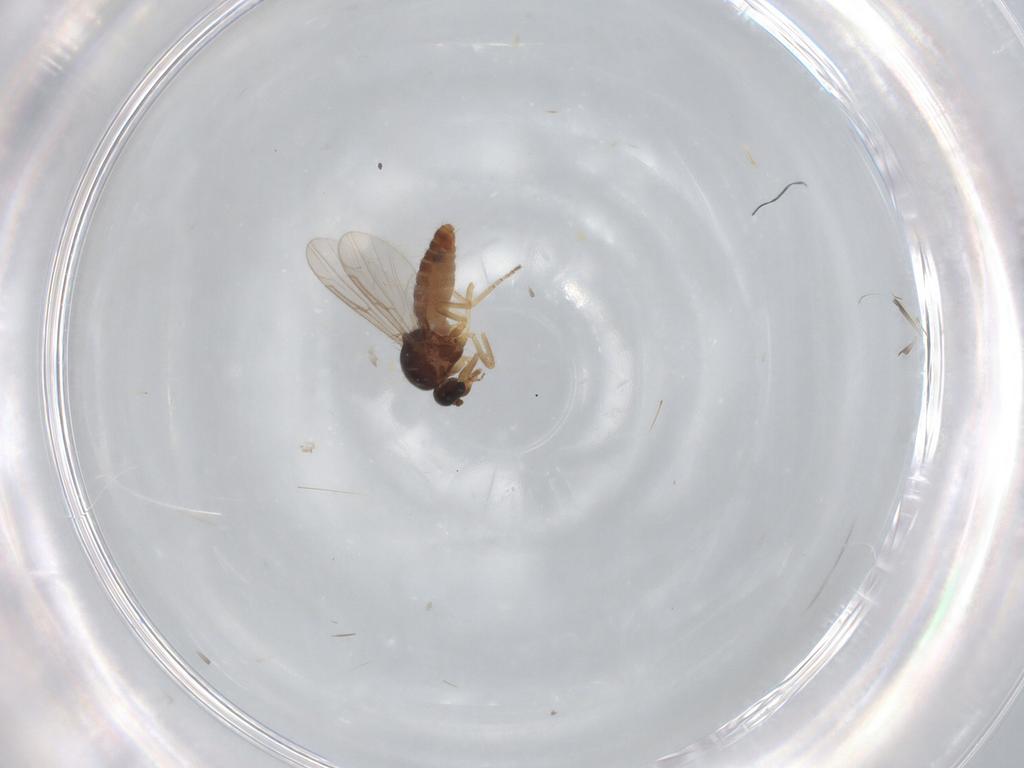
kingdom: Animalia
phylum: Arthropoda
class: Insecta
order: Diptera
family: Ceratopogonidae
